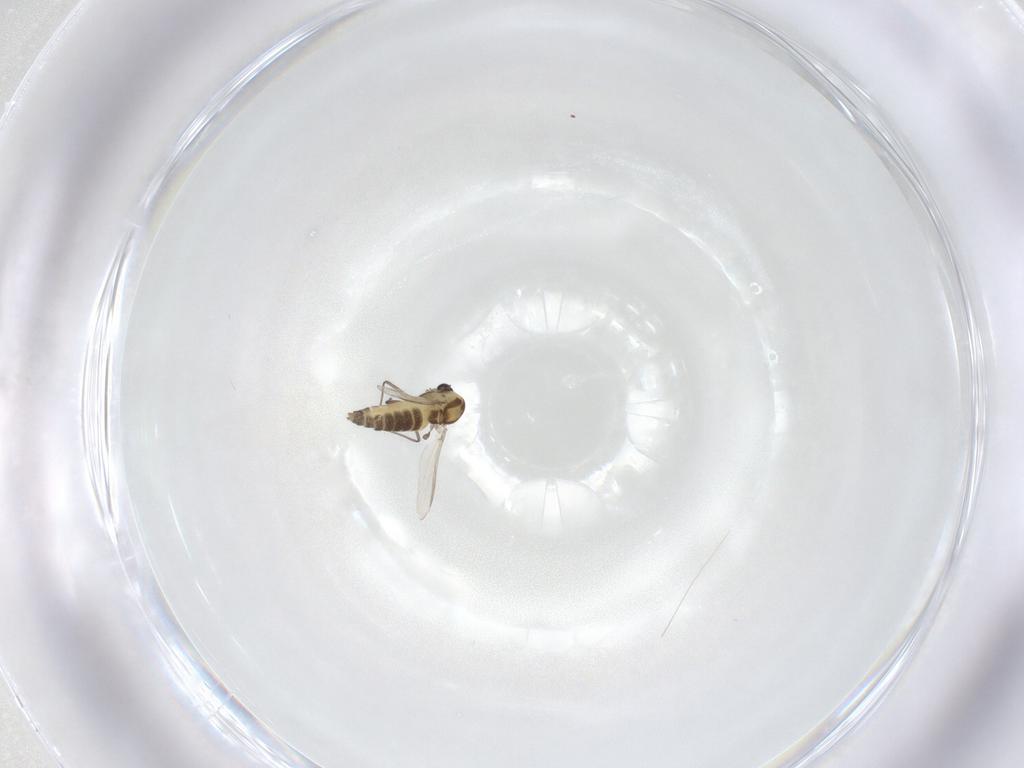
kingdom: Animalia
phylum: Arthropoda
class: Insecta
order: Diptera
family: Chironomidae
